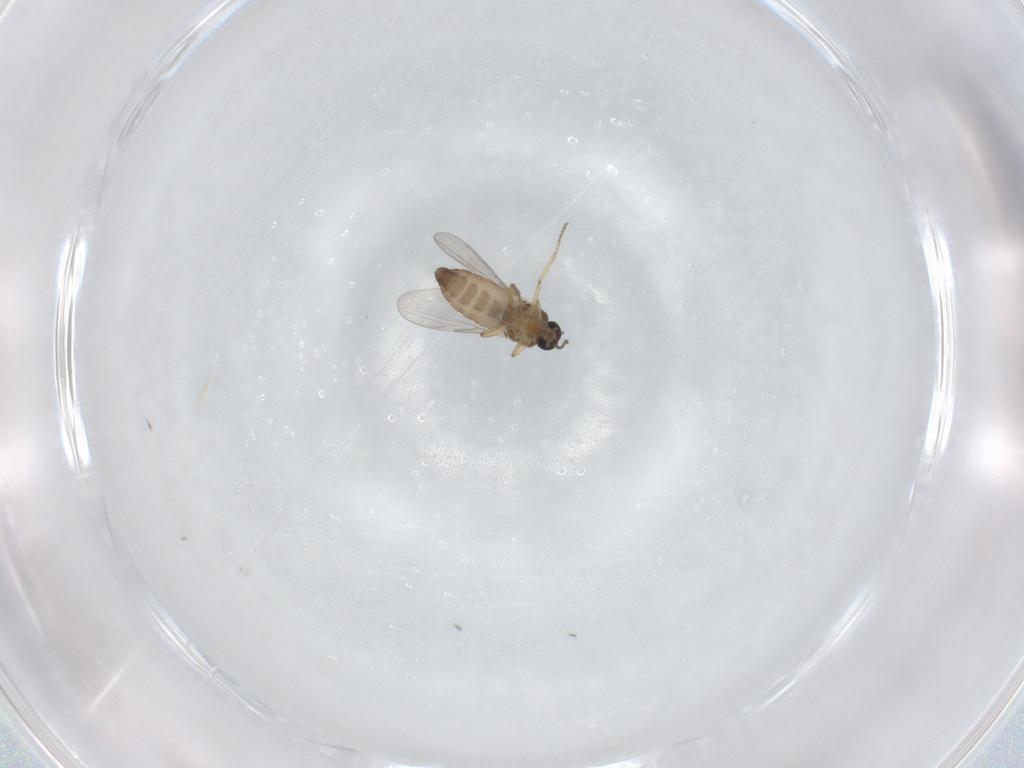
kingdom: Animalia
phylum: Arthropoda
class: Insecta
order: Diptera
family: Ceratopogonidae
